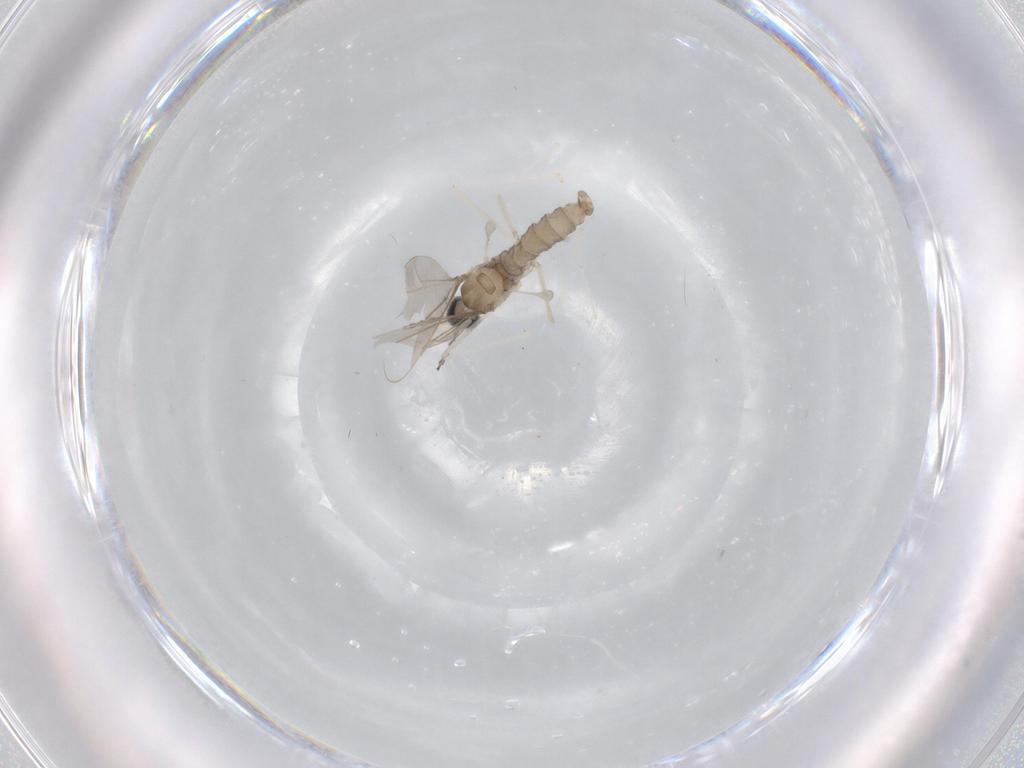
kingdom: Animalia
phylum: Arthropoda
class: Insecta
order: Diptera
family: Cecidomyiidae
